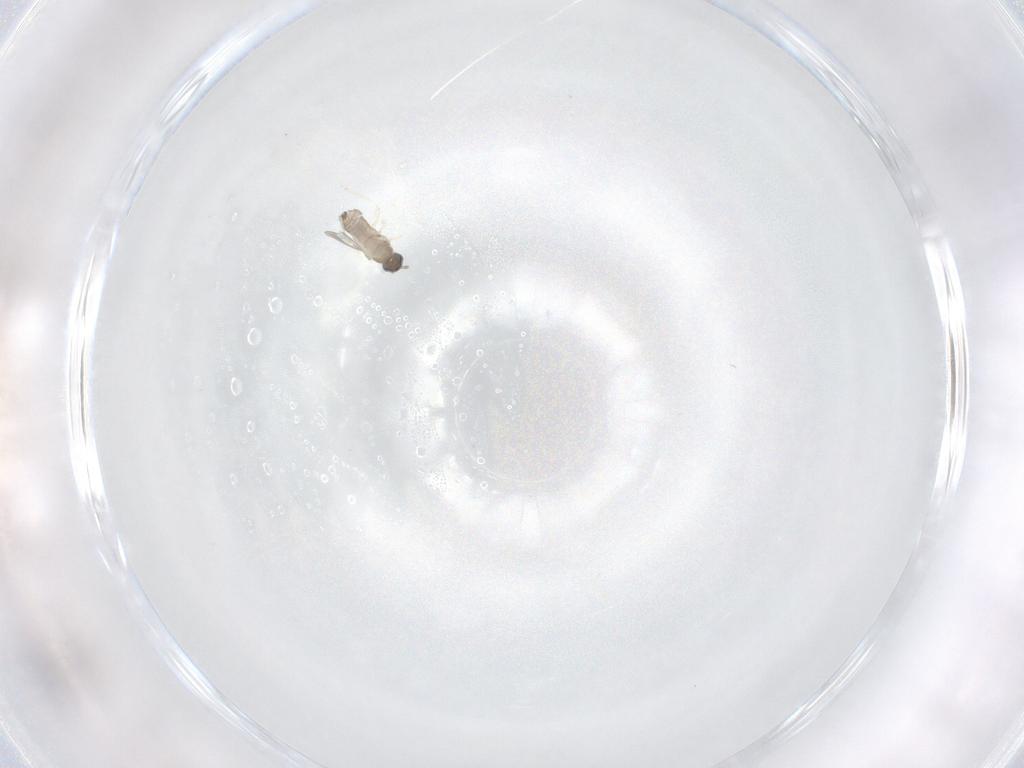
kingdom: Animalia
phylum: Arthropoda
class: Insecta
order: Diptera
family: Cecidomyiidae
